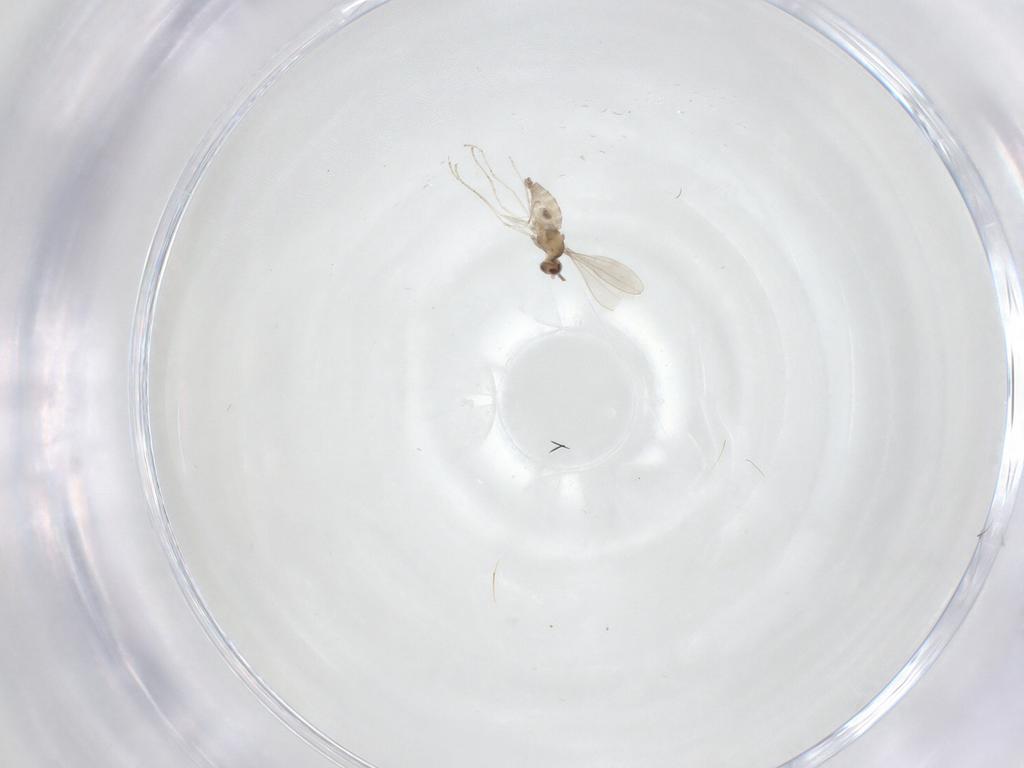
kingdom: Animalia
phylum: Arthropoda
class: Insecta
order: Diptera
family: Cecidomyiidae
